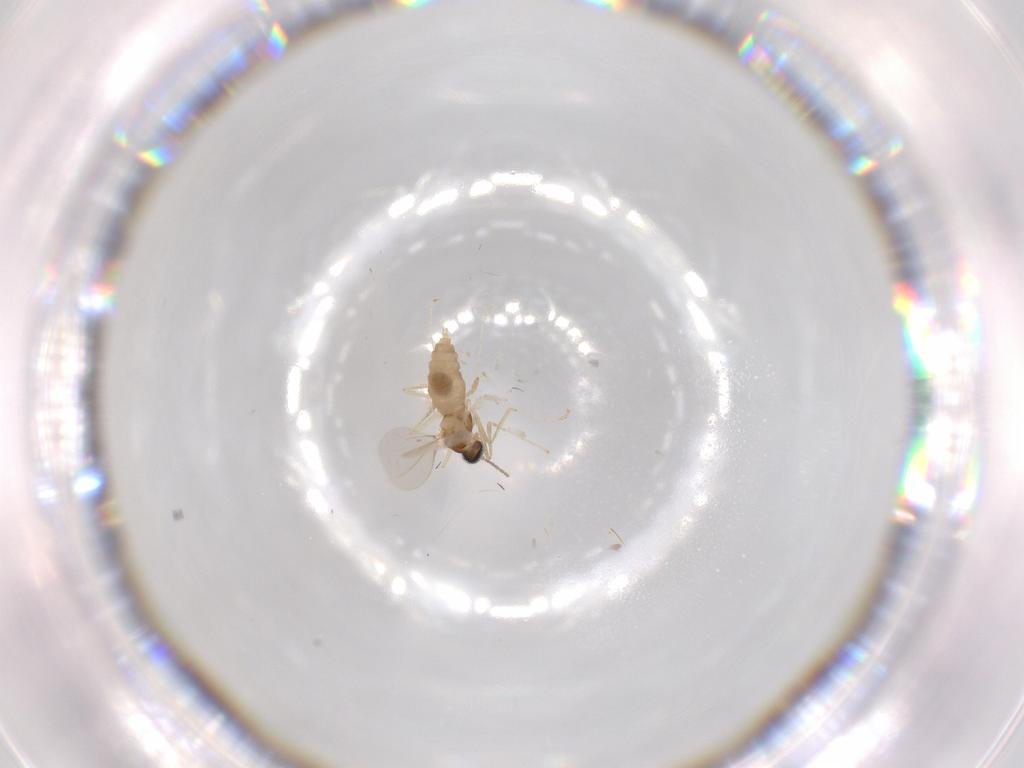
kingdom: Animalia
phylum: Arthropoda
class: Insecta
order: Diptera
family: Cecidomyiidae
